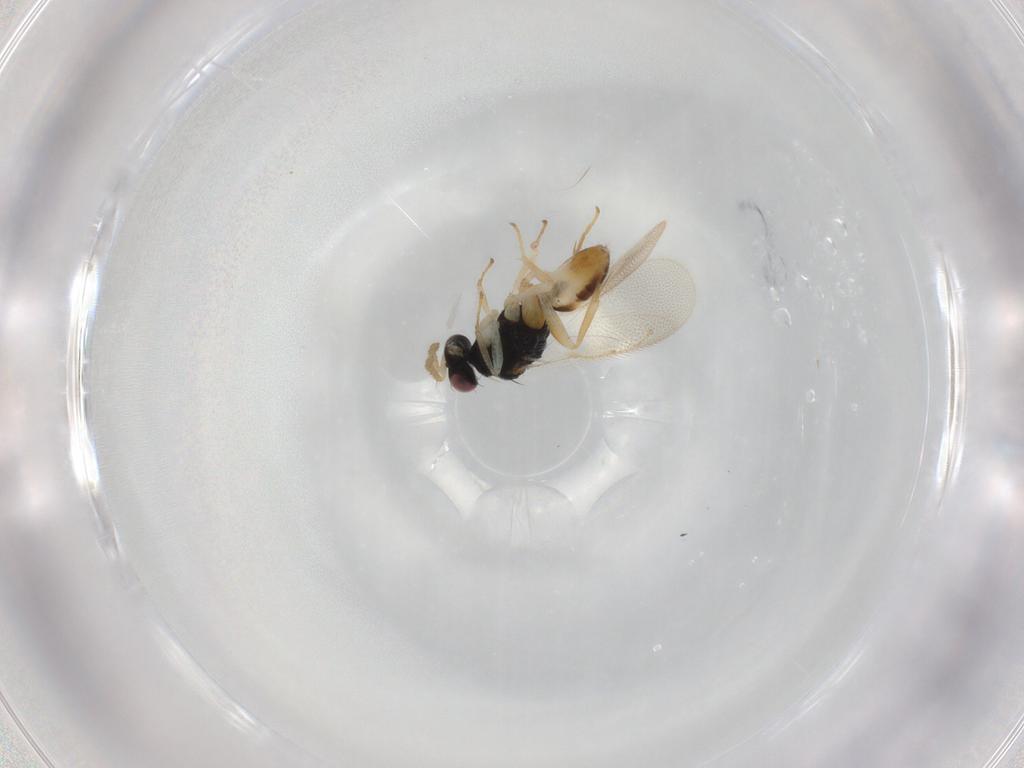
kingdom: Animalia
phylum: Arthropoda
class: Insecta
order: Hymenoptera
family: Eulophidae
